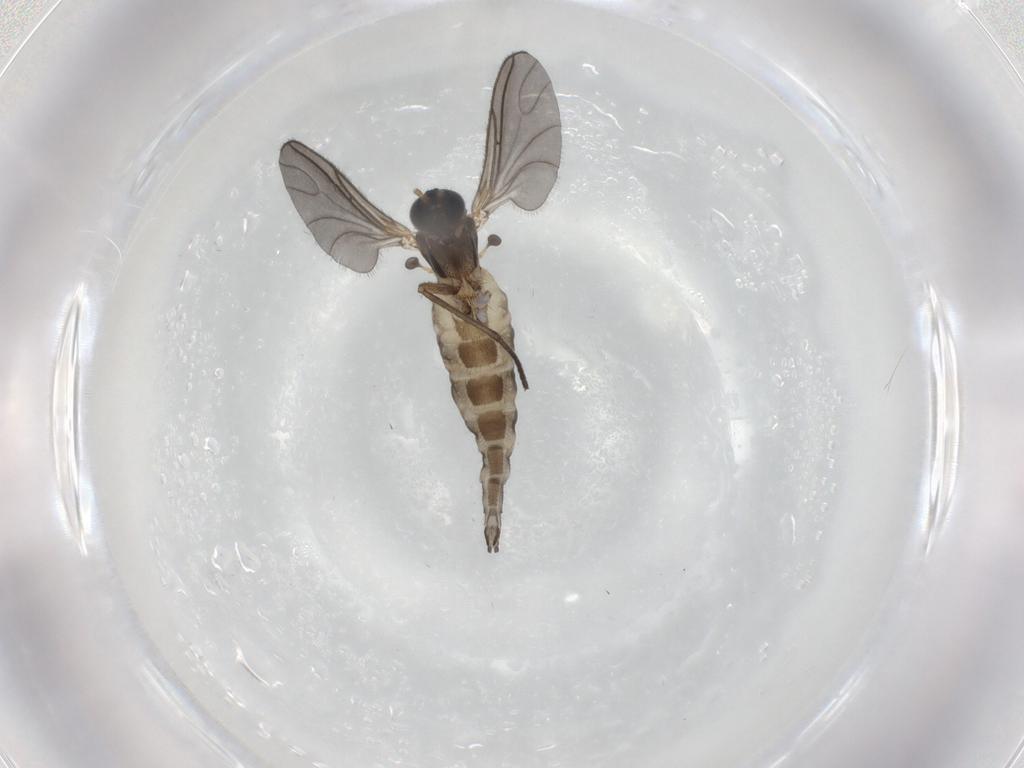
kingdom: Animalia
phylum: Arthropoda
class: Insecta
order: Diptera
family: Sciaridae
